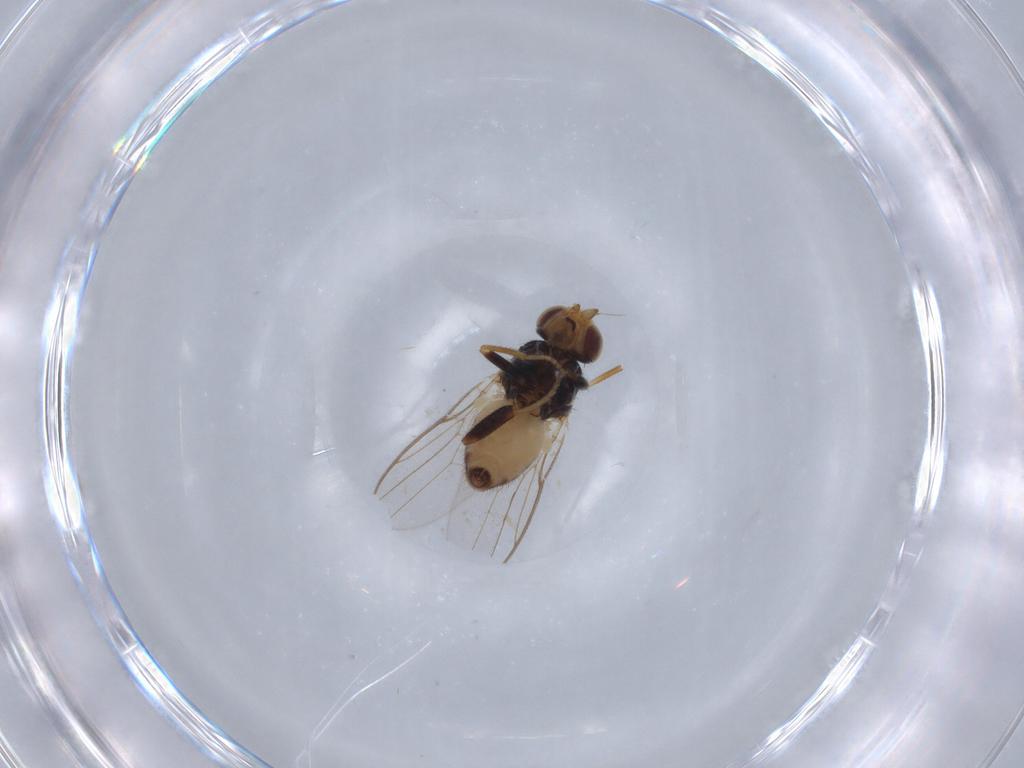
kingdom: Animalia
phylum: Arthropoda
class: Insecta
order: Diptera
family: Chloropidae
